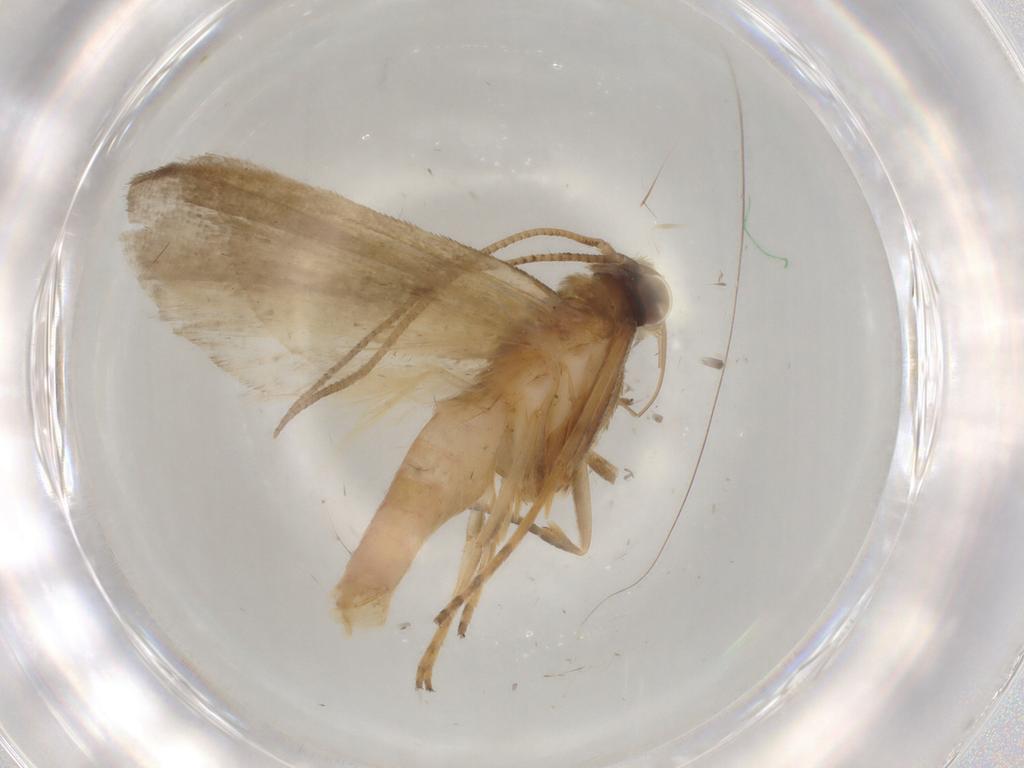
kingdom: Animalia
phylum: Arthropoda
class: Insecta
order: Lepidoptera
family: Noctuidae
